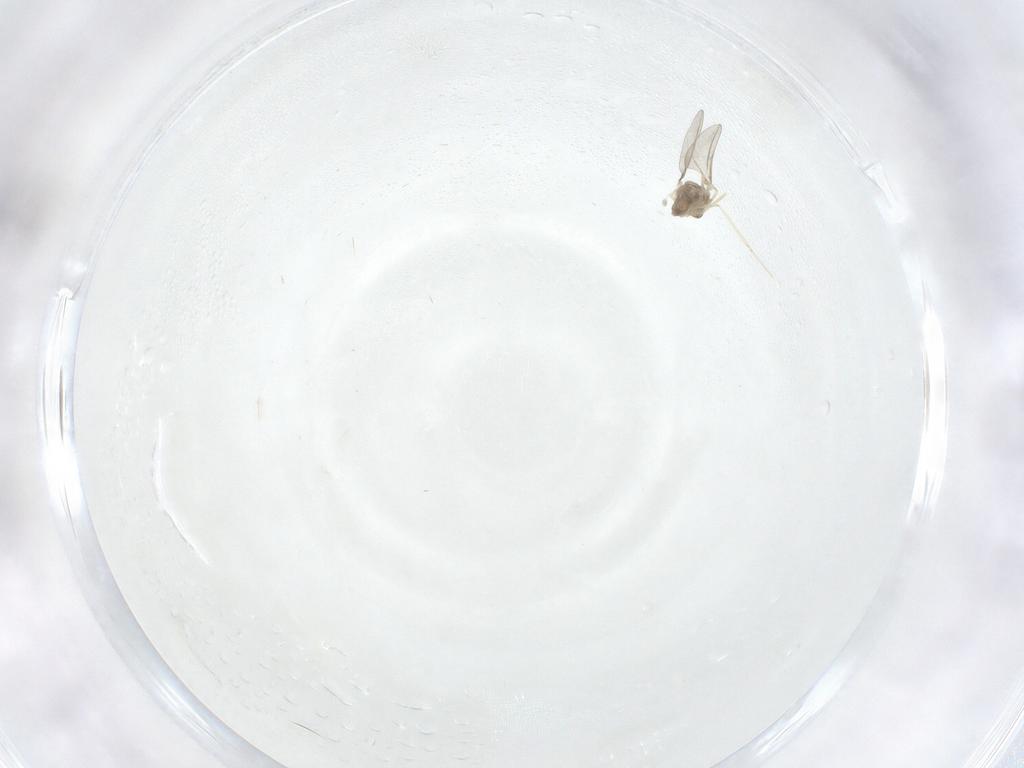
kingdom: Animalia
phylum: Arthropoda
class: Insecta
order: Diptera
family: Cecidomyiidae
